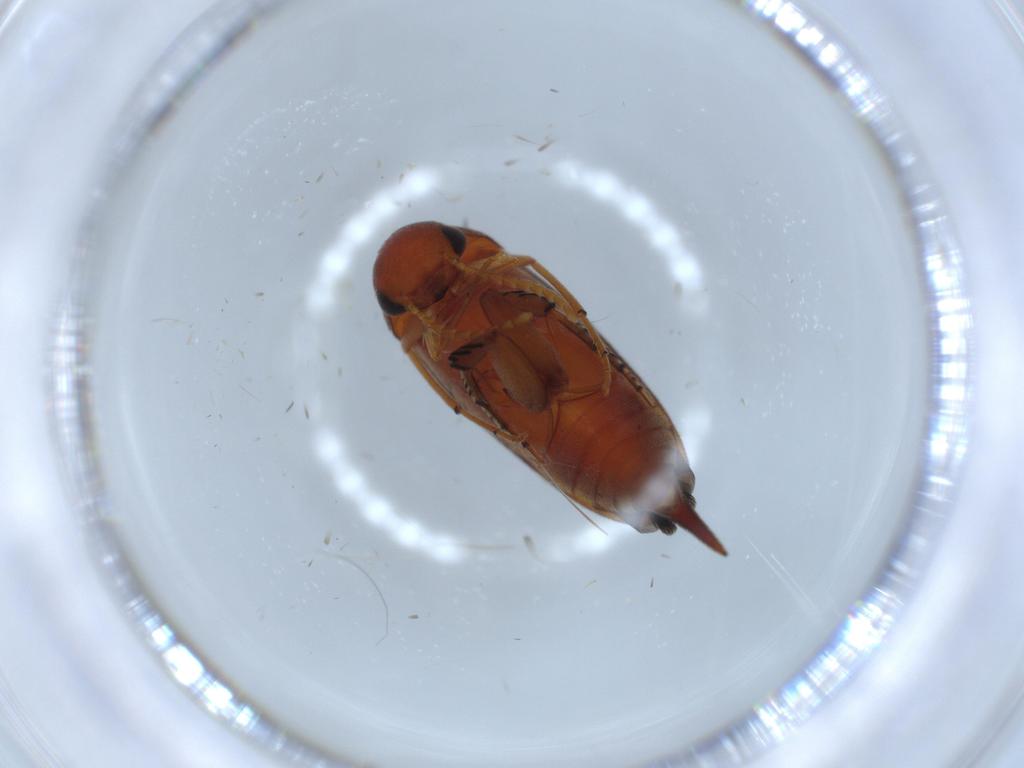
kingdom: Animalia
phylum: Arthropoda
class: Insecta
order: Coleoptera
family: Mordellidae
